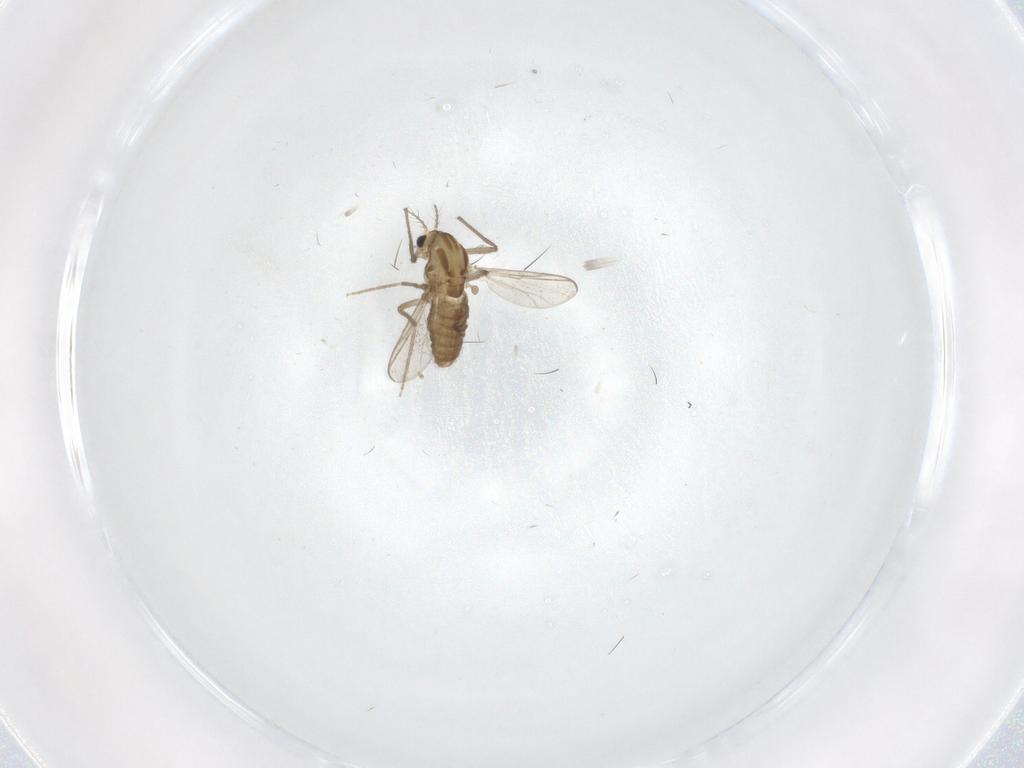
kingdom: Animalia
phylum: Arthropoda
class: Insecta
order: Diptera
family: Chironomidae
